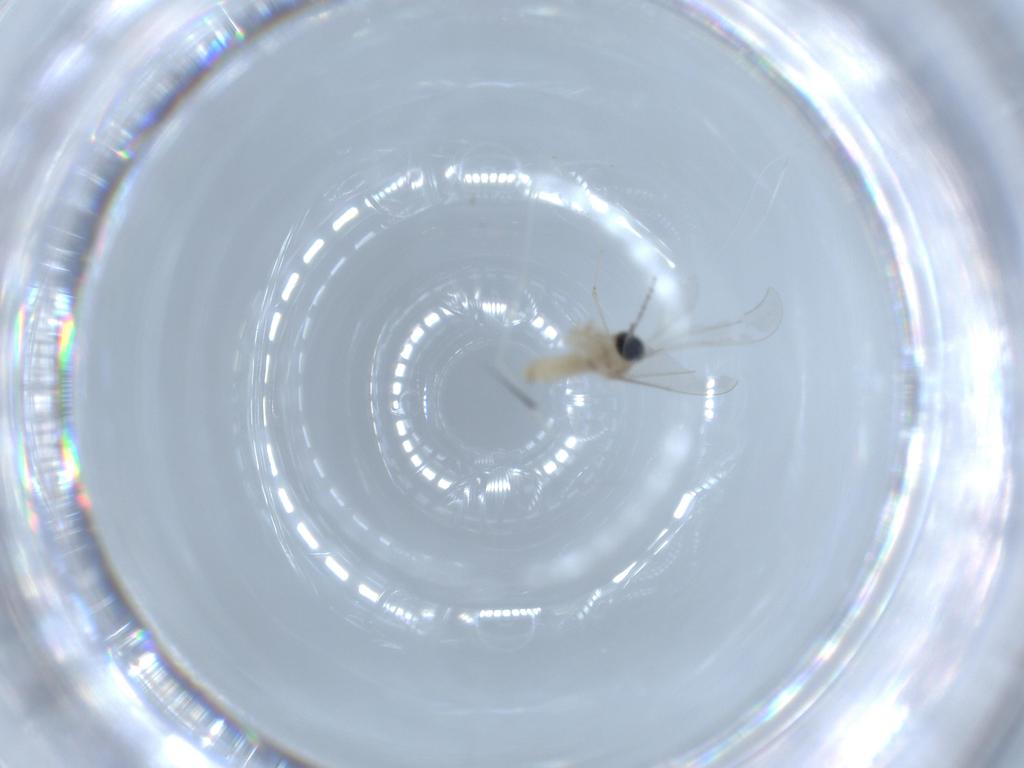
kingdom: Animalia
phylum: Arthropoda
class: Insecta
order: Diptera
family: Cecidomyiidae
